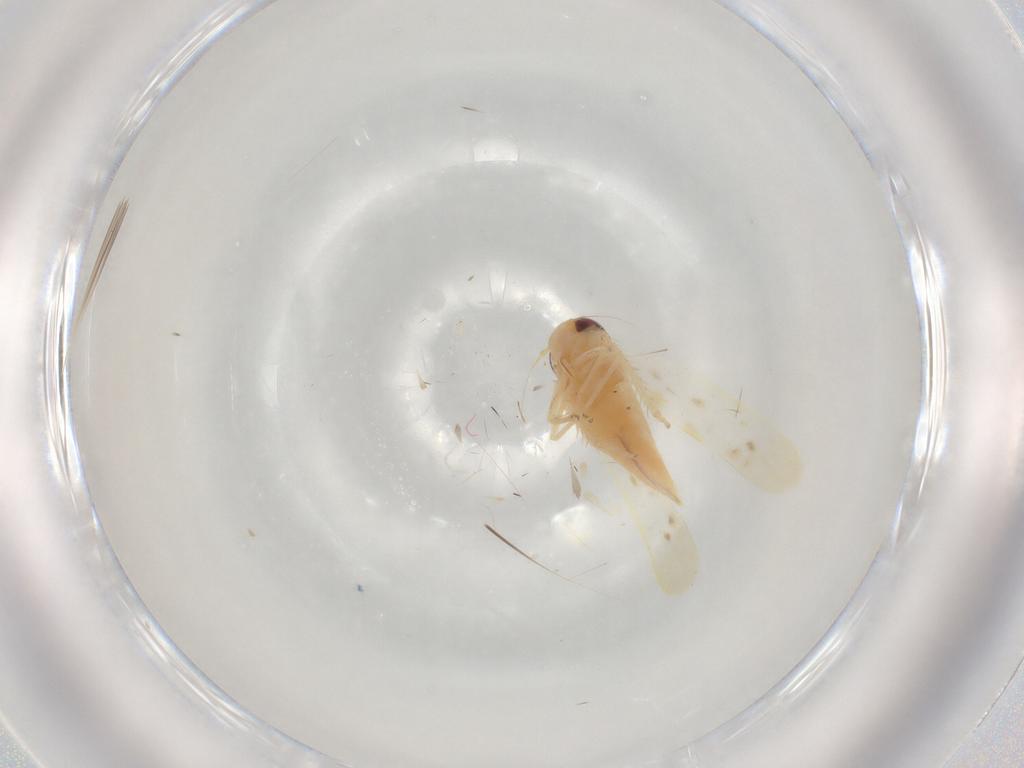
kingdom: Animalia
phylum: Arthropoda
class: Insecta
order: Hemiptera
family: Cicadellidae
